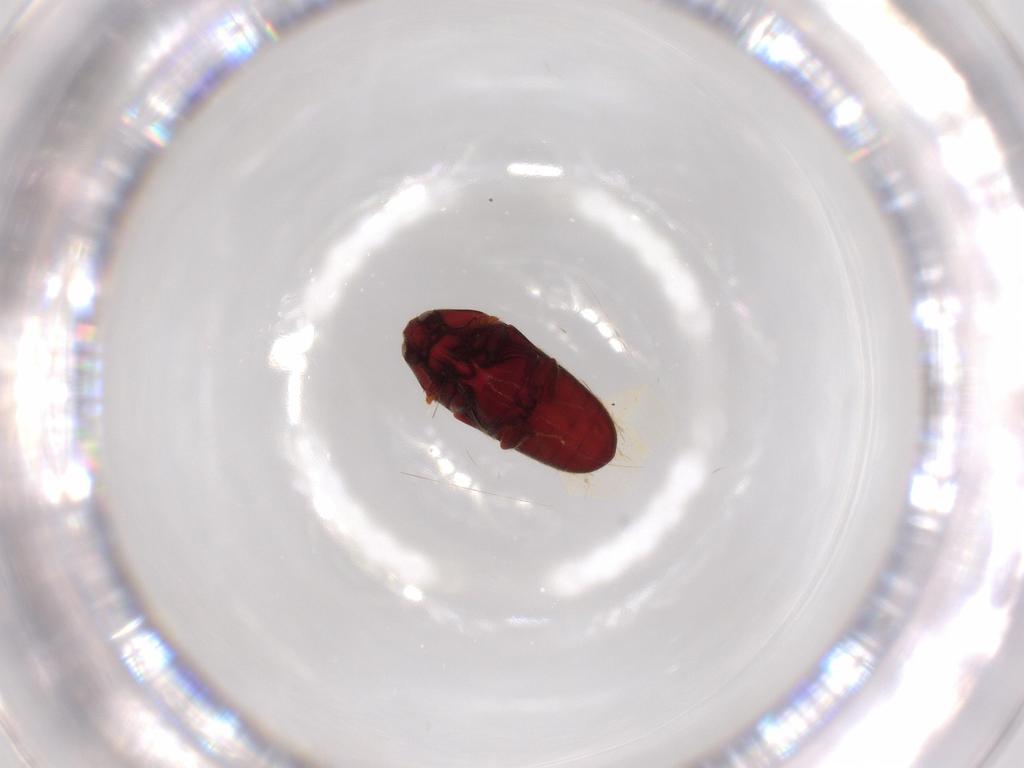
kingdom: Animalia
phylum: Arthropoda
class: Insecta
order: Coleoptera
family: Throscidae
